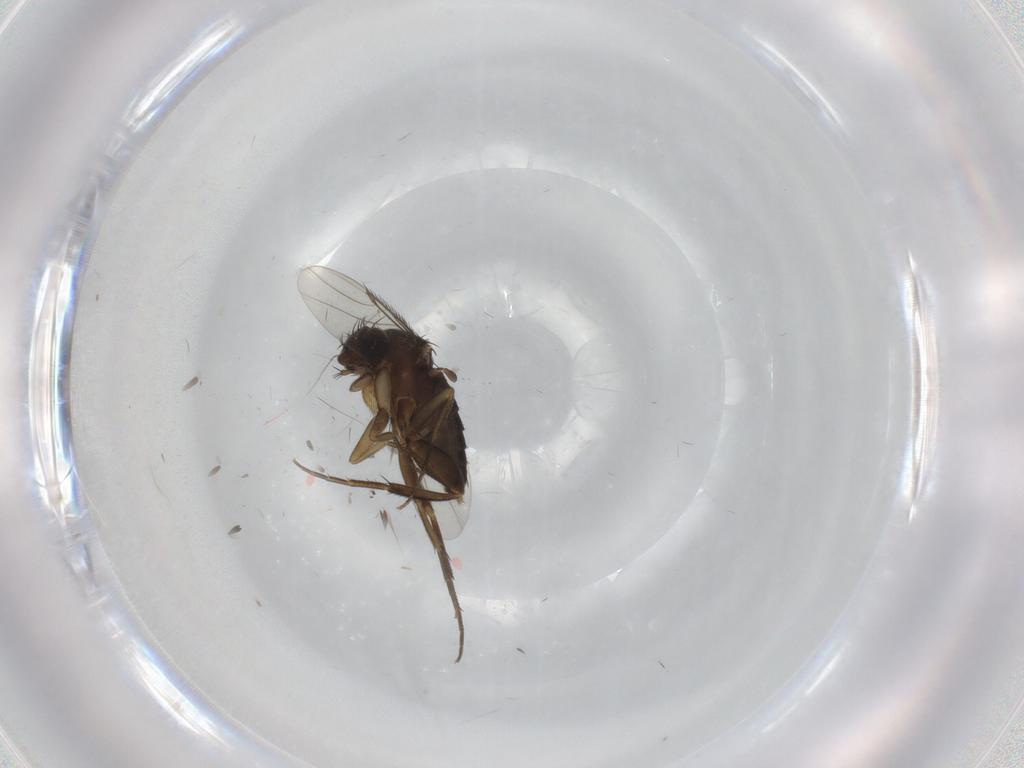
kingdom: Animalia
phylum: Arthropoda
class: Insecta
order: Diptera
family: Phoridae
